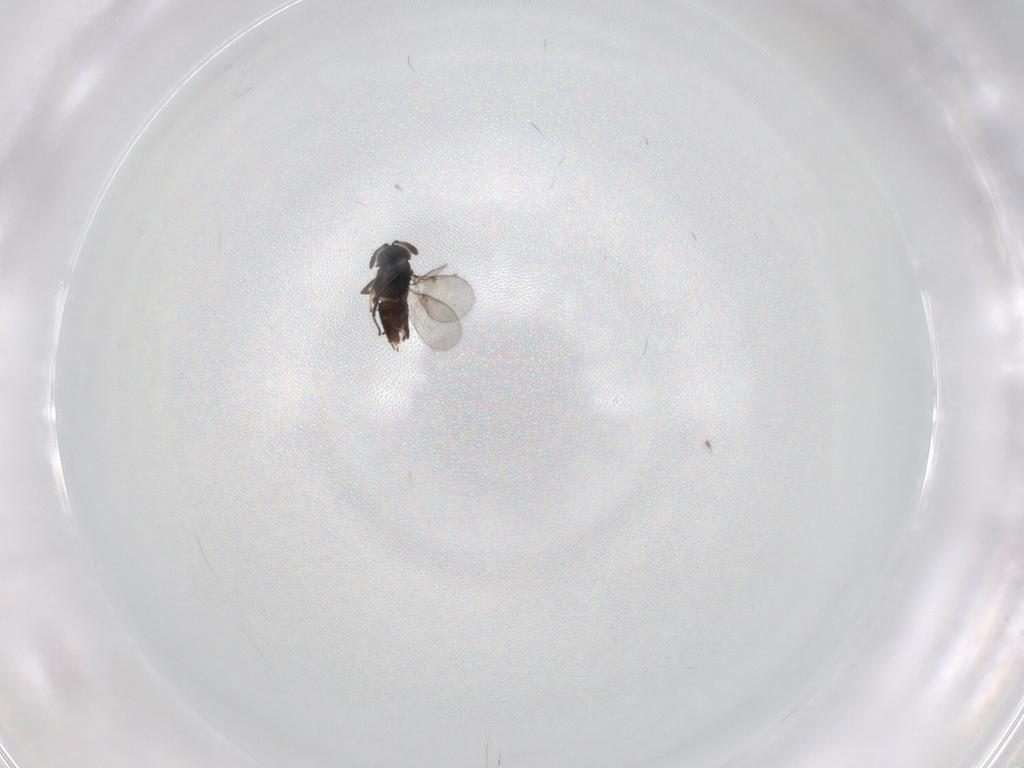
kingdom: Animalia
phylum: Arthropoda
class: Insecta
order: Hymenoptera
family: Encyrtidae
